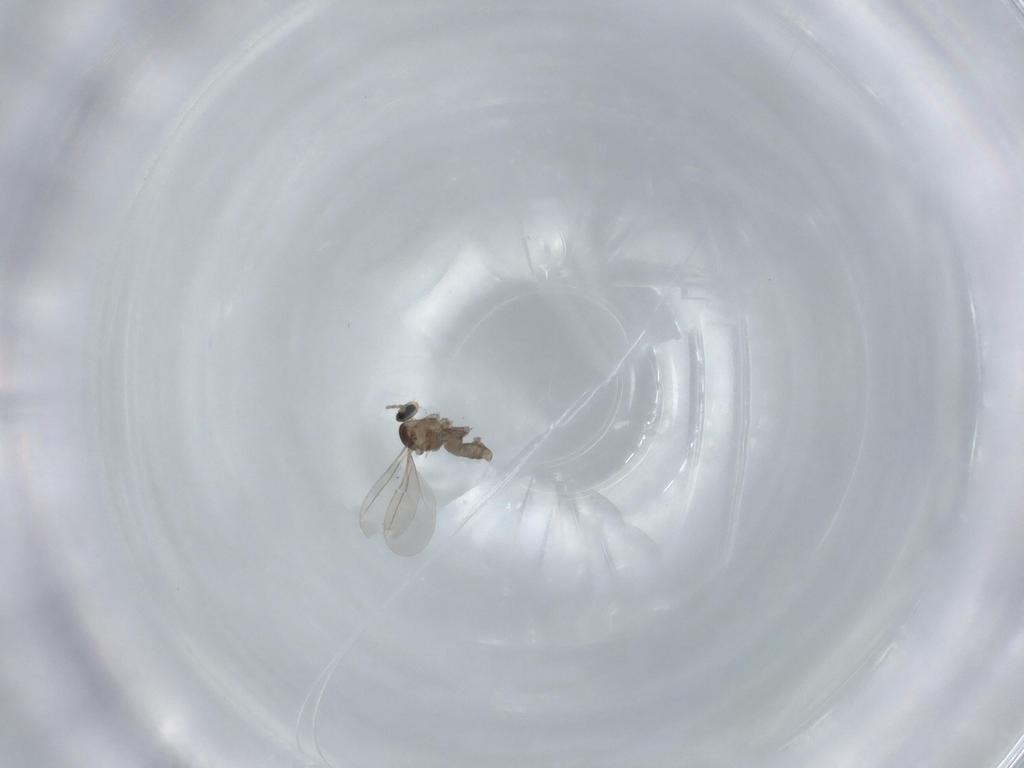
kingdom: Animalia
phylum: Arthropoda
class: Insecta
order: Diptera
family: Cecidomyiidae
